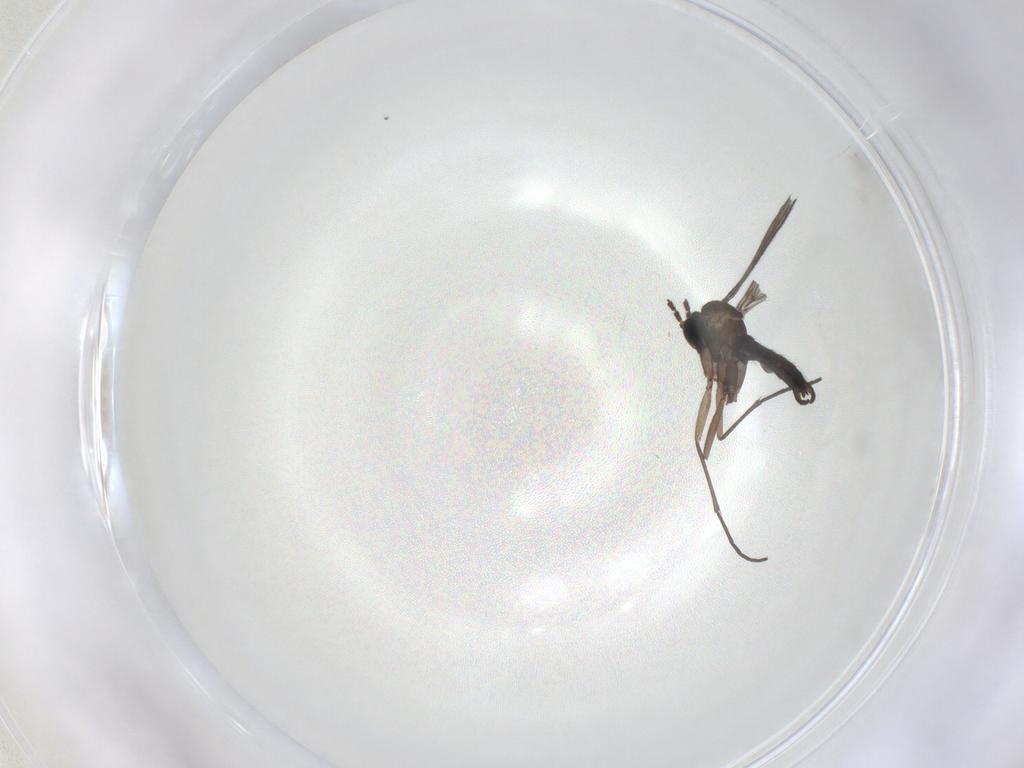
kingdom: Animalia
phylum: Arthropoda
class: Insecta
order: Diptera
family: Sciaridae
